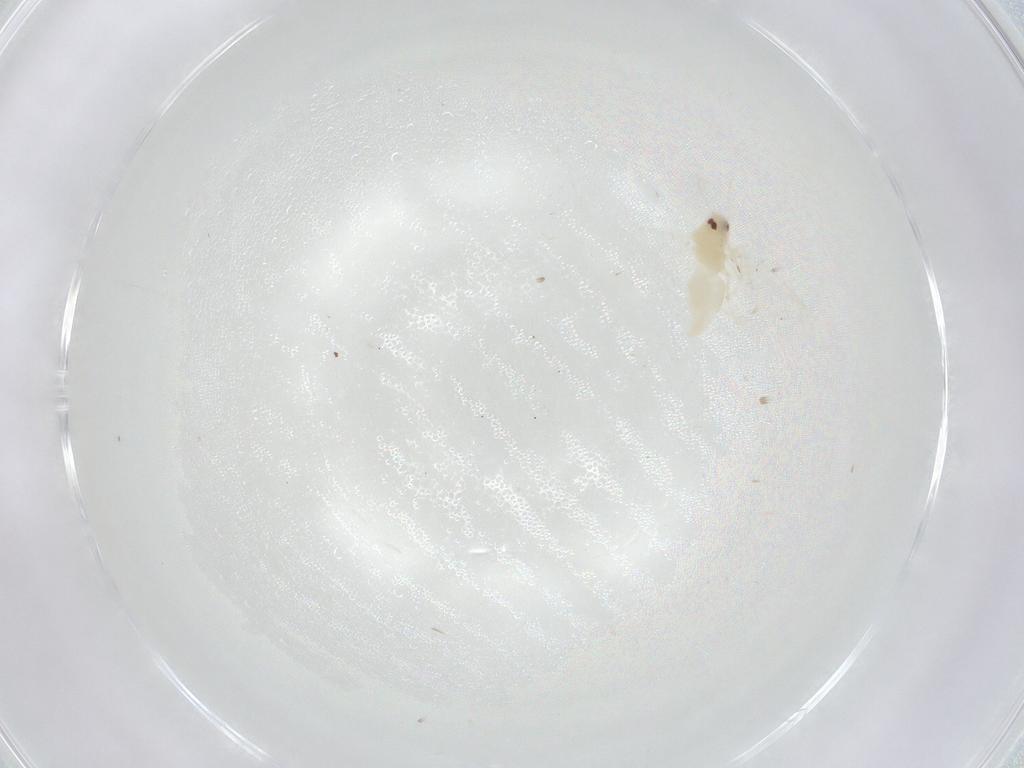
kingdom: Animalia
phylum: Arthropoda
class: Insecta
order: Hemiptera
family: Aleyrodidae
